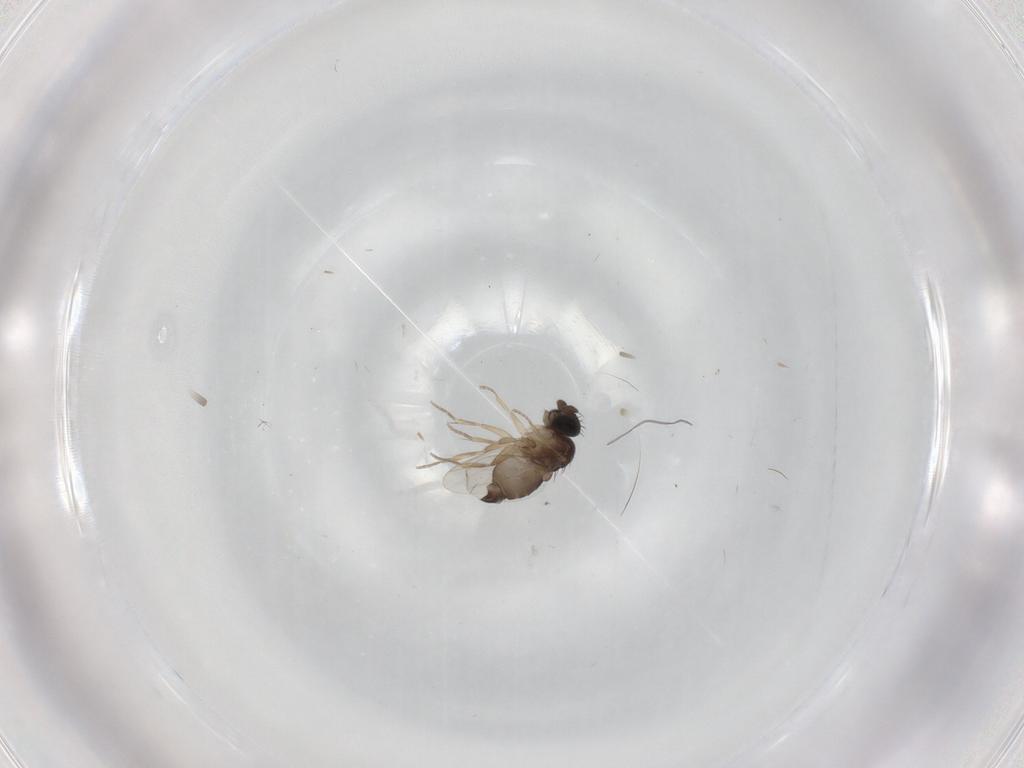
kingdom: Animalia
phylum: Arthropoda
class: Insecta
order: Diptera
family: Phoridae
